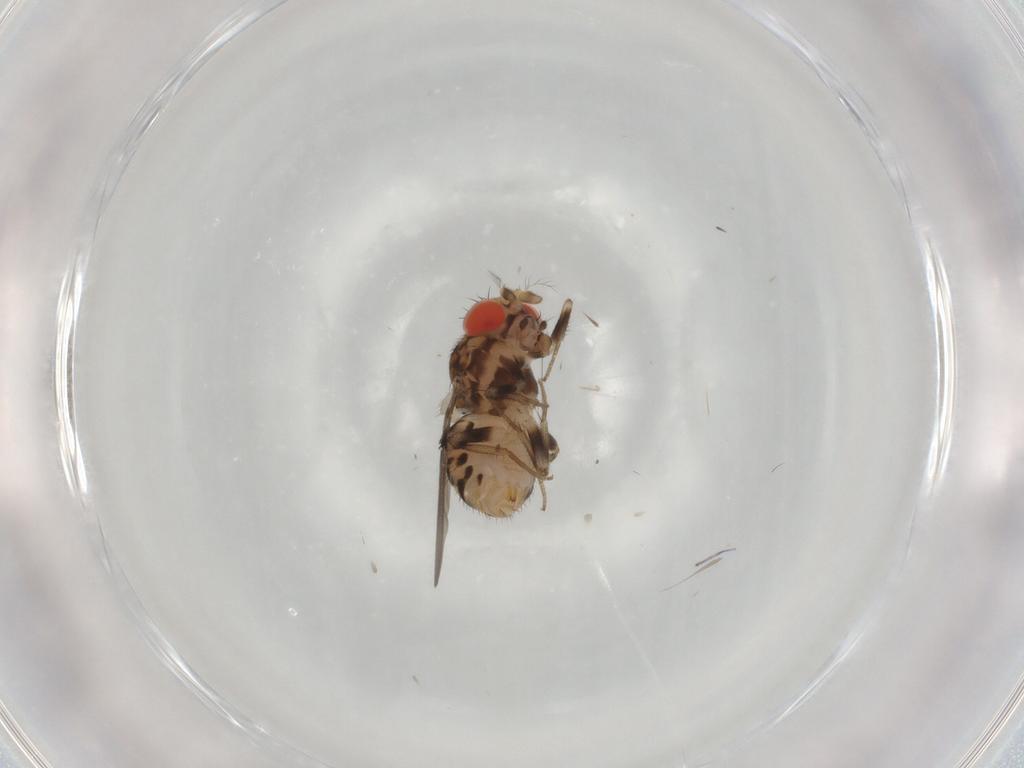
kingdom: Animalia
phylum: Arthropoda
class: Insecta
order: Diptera
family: Drosophilidae
